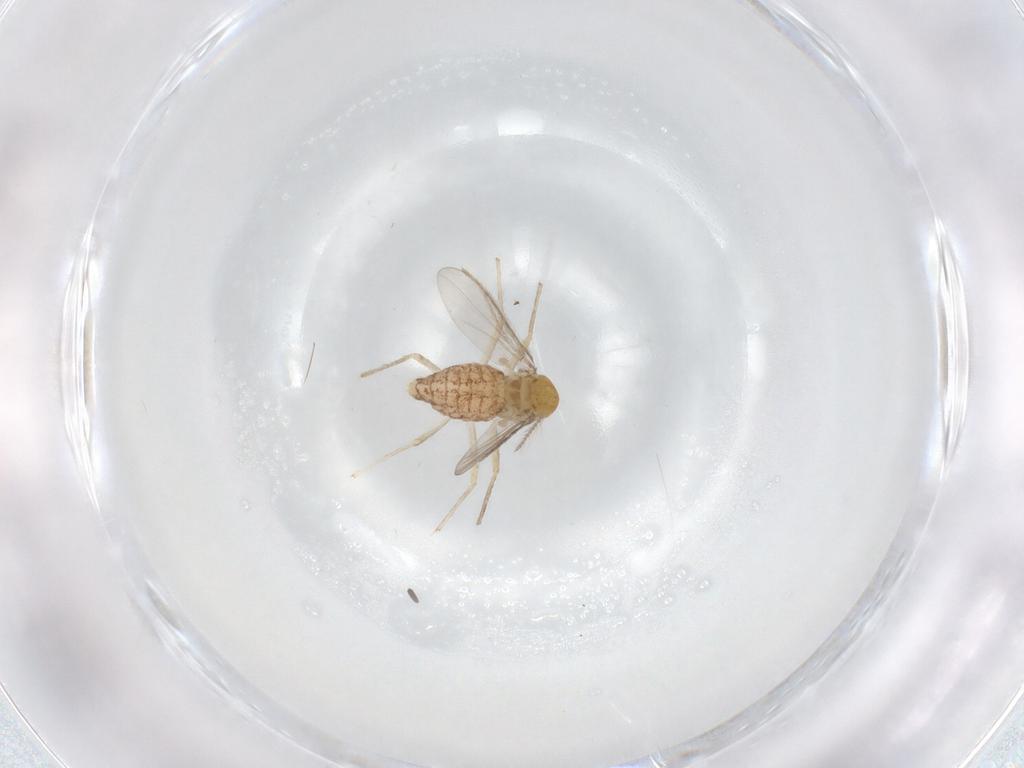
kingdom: Animalia
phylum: Arthropoda
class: Insecta
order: Diptera
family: Chironomidae
